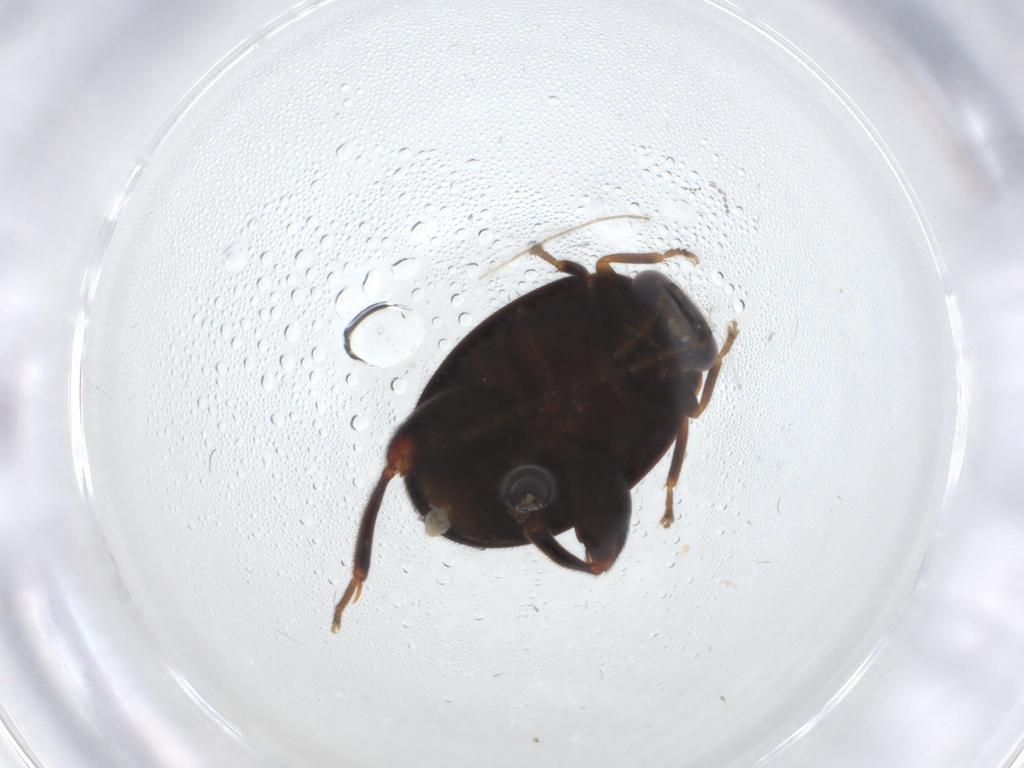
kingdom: Animalia
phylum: Arthropoda
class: Insecta
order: Coleoptera
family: Scirtidae
